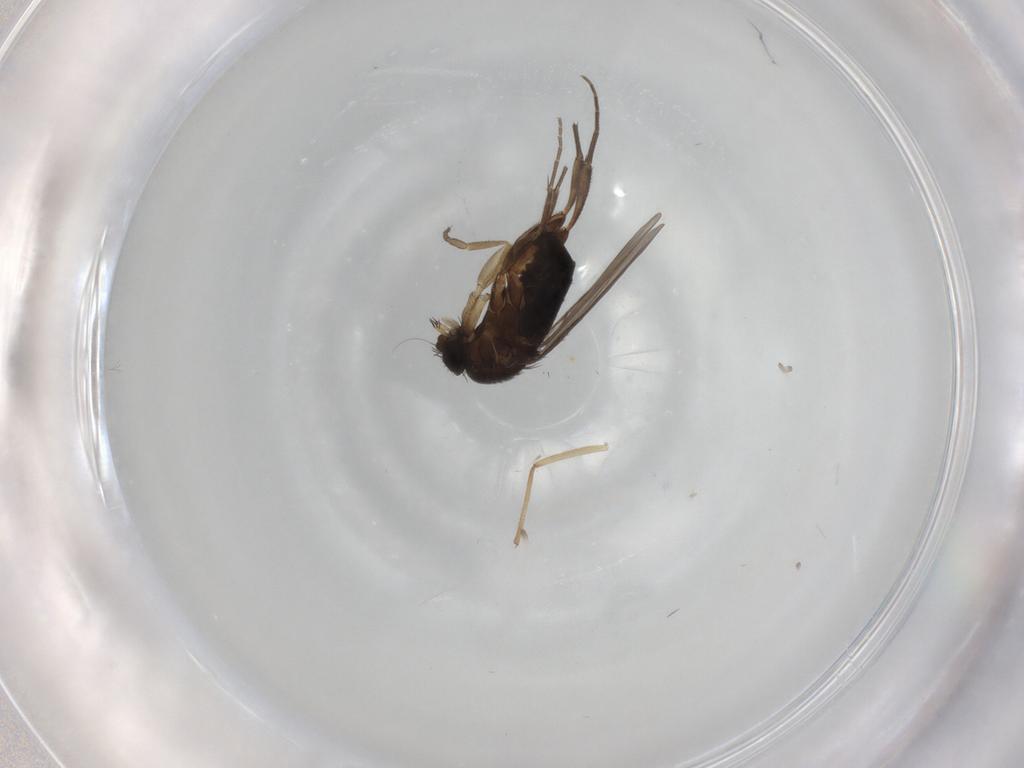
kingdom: Animalia
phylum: Arthropoda
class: Insecta
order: Diptera
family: Phoridae
